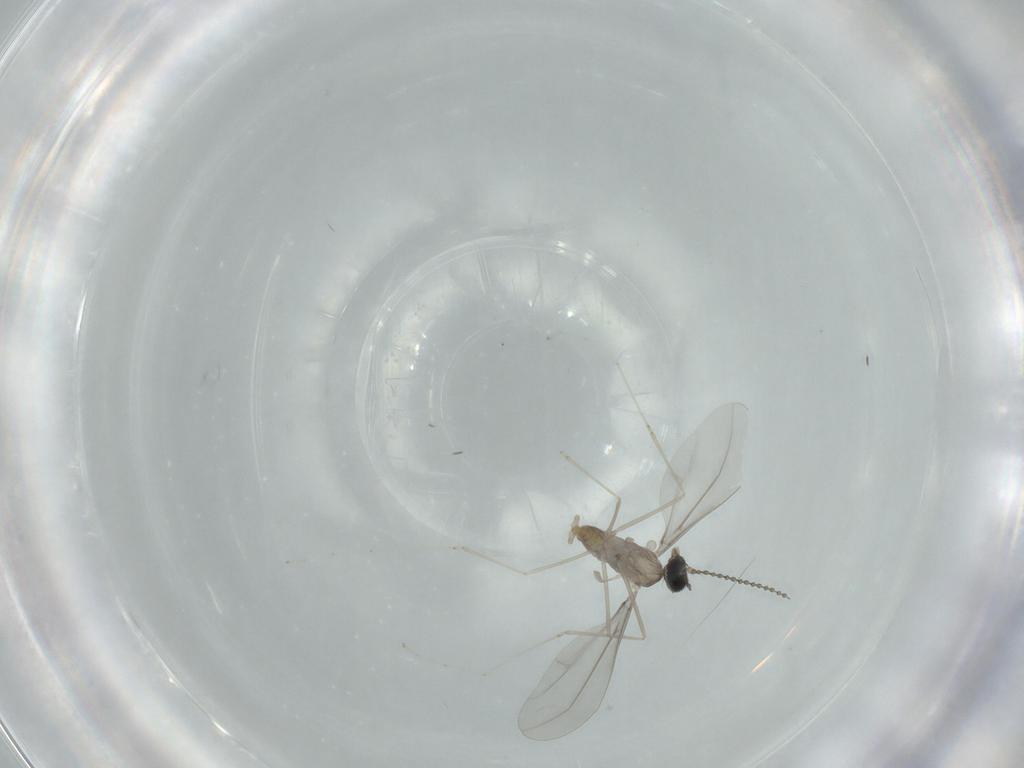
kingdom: Animalia
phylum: Arthropoda
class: Insecta
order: Diptera
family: Cecidomyiidae
